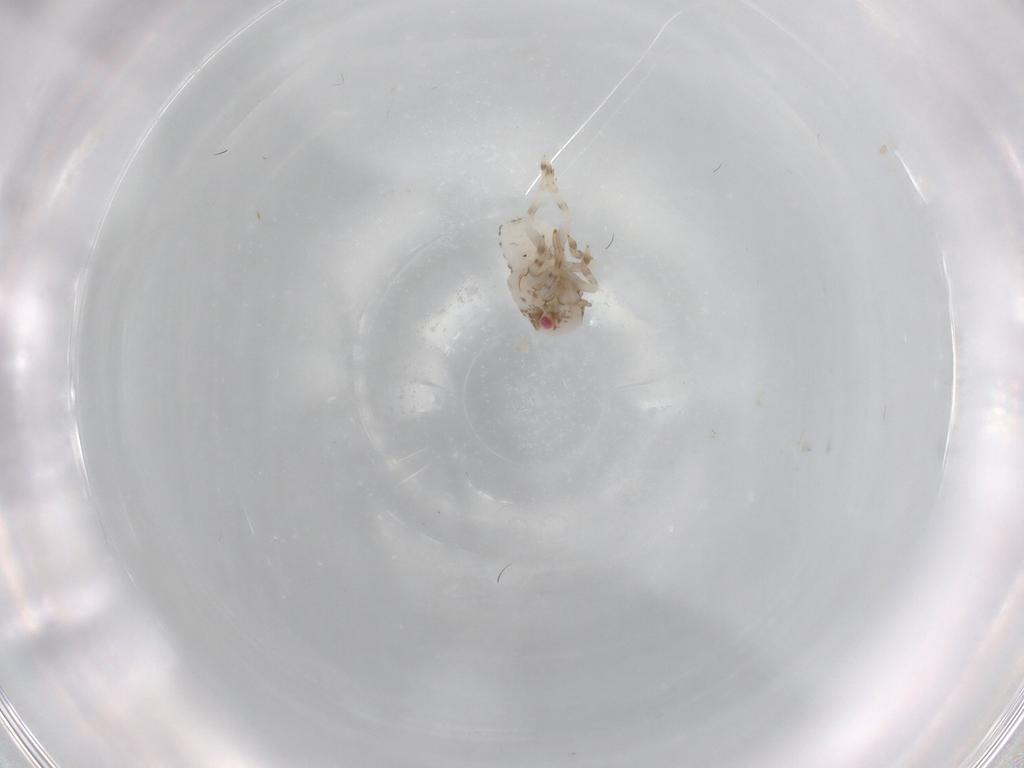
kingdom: Animalia
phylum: Arthropoda
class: Insecta
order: Hemiptera
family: Acanaloniidae
